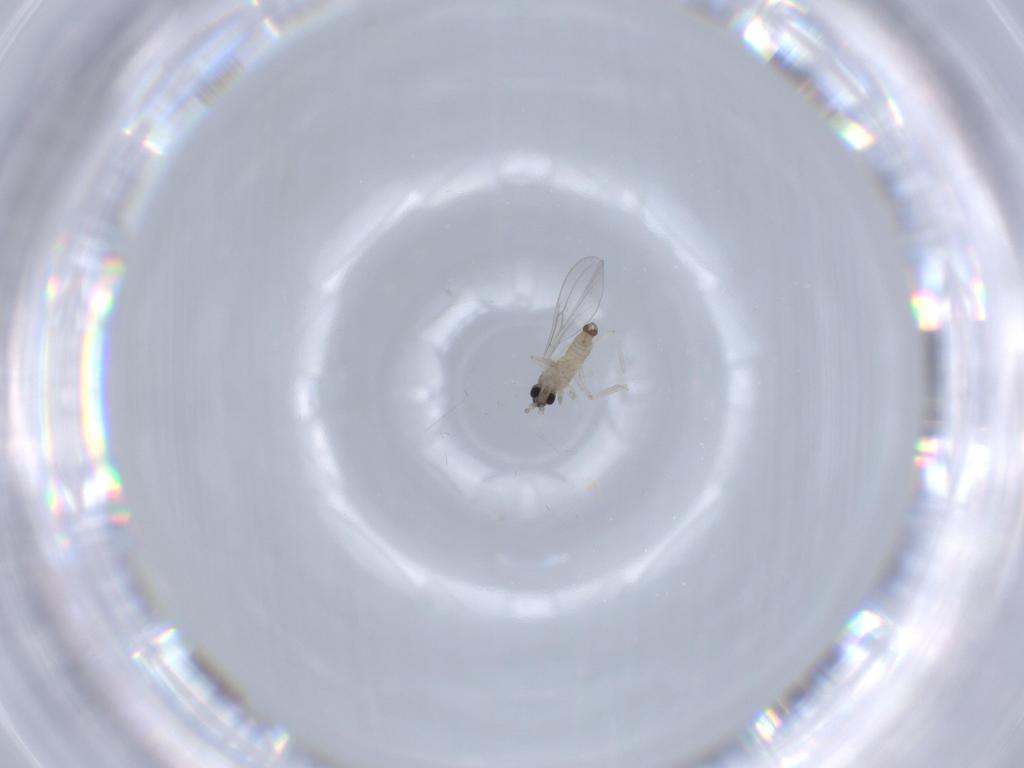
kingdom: Animalia
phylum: Arthropoda
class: Insecta
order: Diptera
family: Cecidomyiidae
